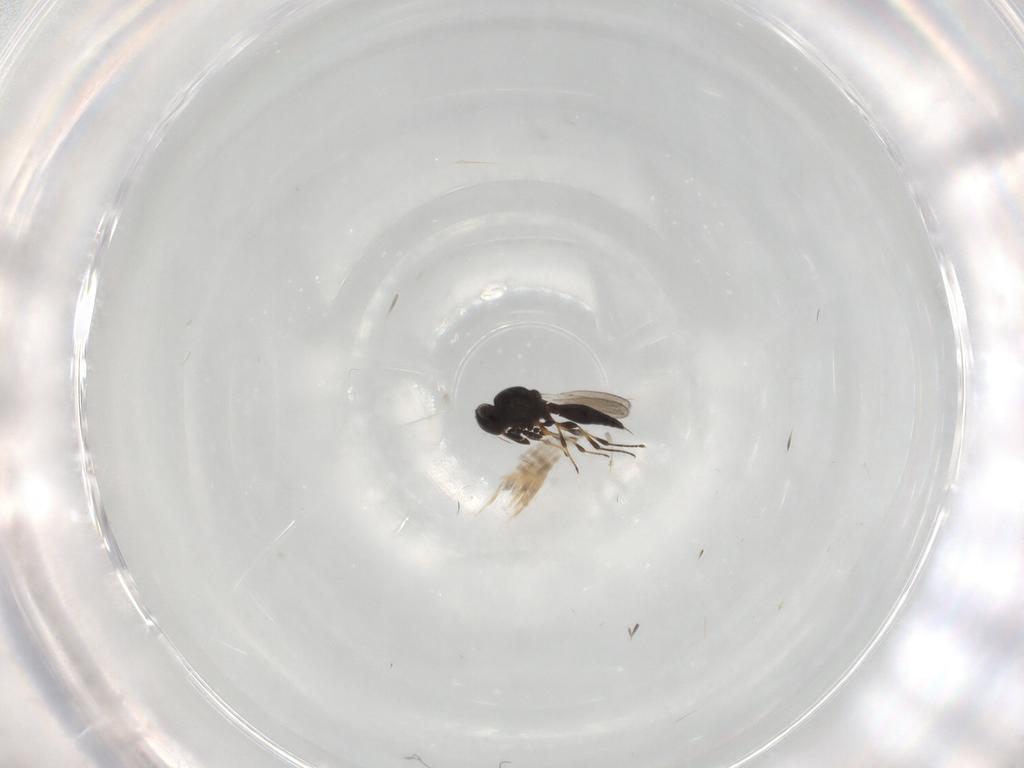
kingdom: Animalia
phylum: Arthropoda
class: Insecta
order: Hymenoptera
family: Platygastridae
